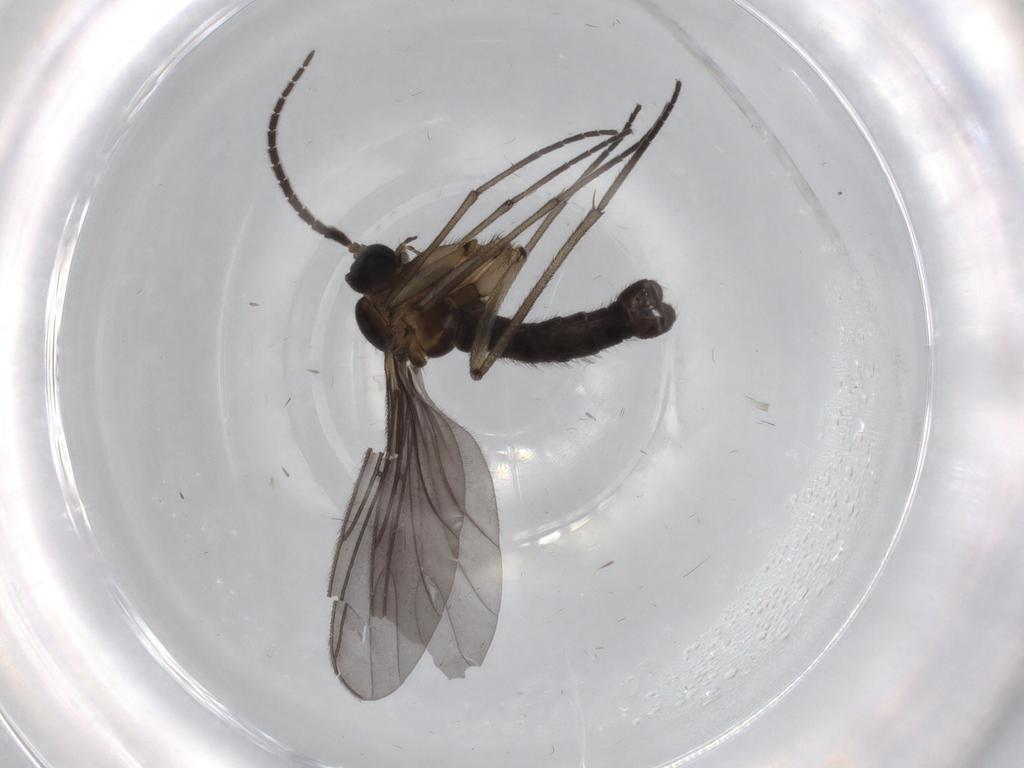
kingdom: Animalia
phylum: Arthropoda
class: Insecta
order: Diptera
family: Sciaridae
